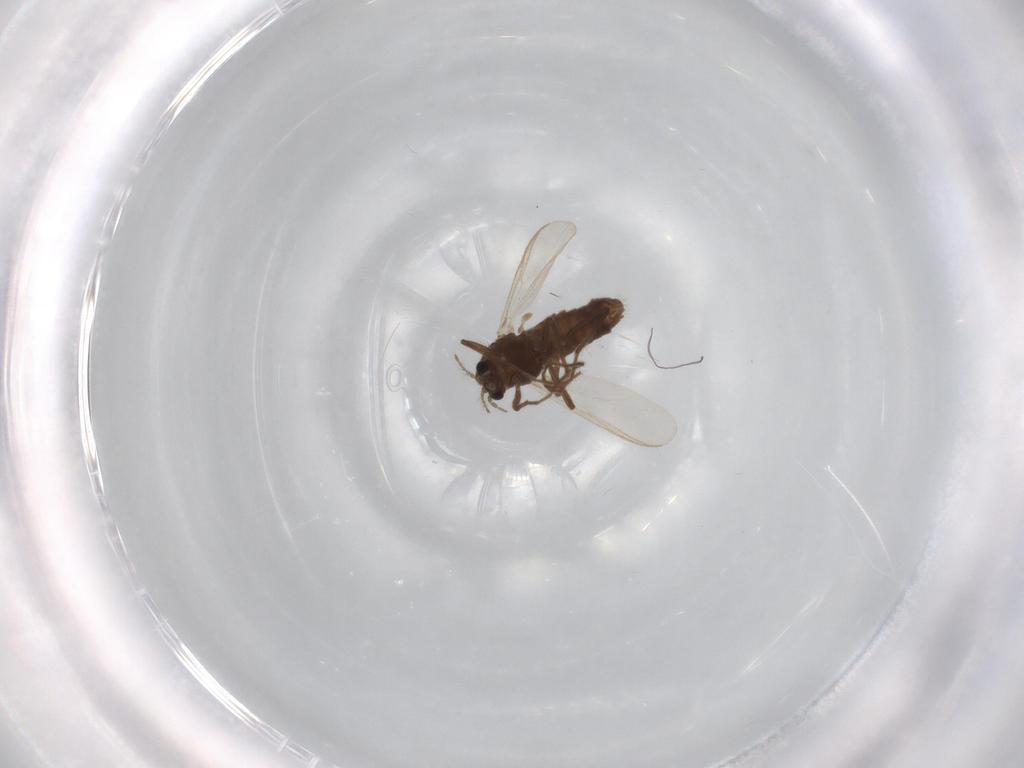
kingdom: Animalia
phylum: Arthropoda
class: Insecta
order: Diptera
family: Chironomidae
